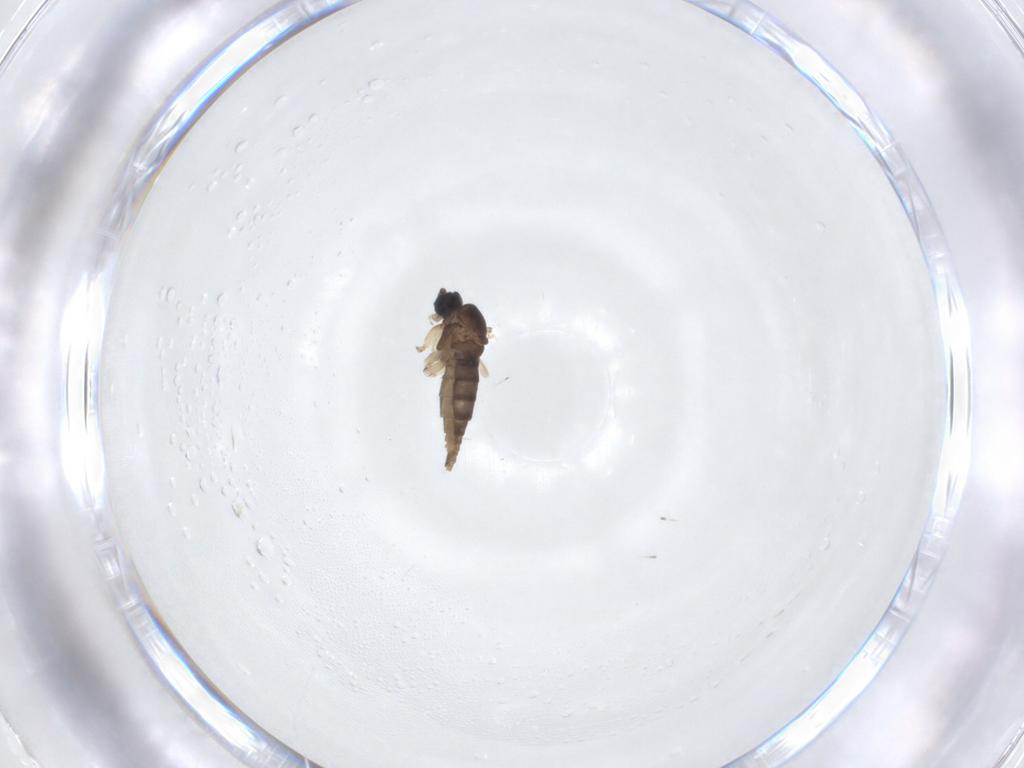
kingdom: Animalia
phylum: Arthropoda
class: Insecta
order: Diptera
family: Sciaridae
